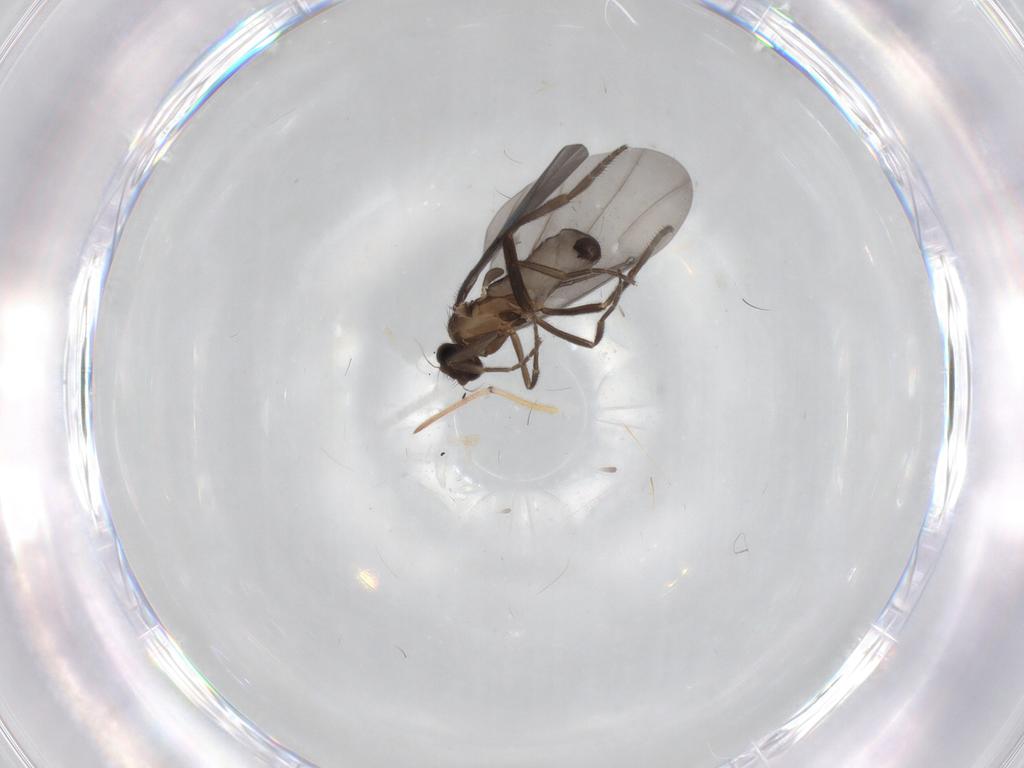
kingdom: Animalia
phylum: Arthropoda
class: Insecta
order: Diptera
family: Phoridae
